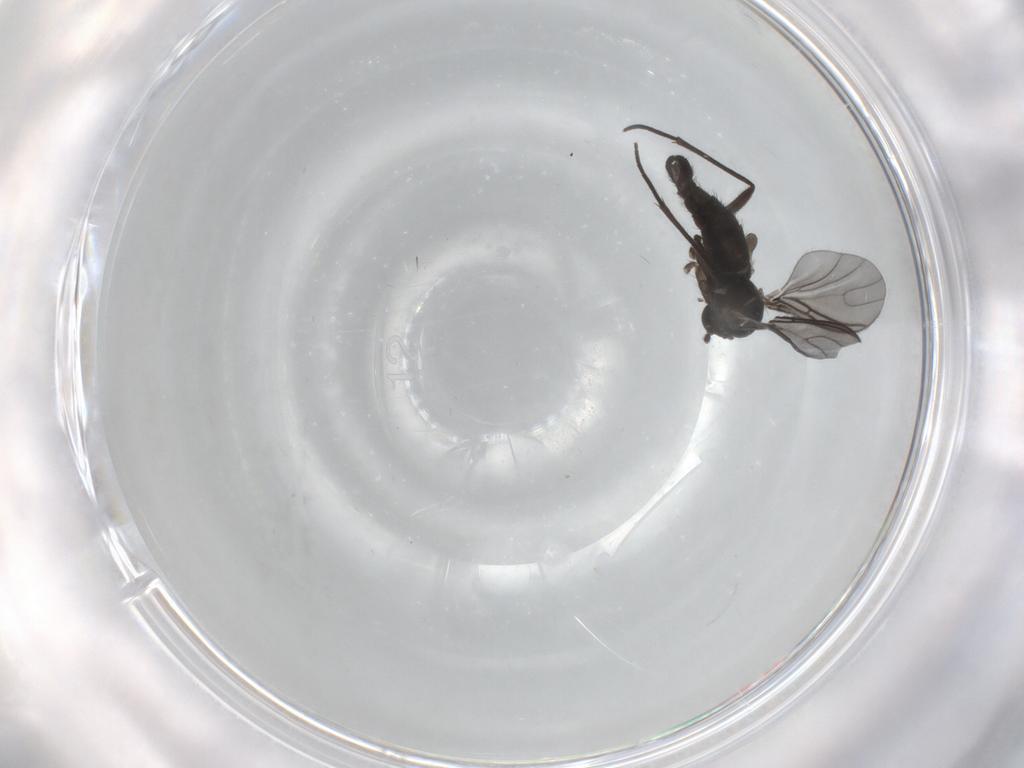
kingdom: Animalia
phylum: Arthropoda
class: Insecta
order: Diptera
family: Sciaridae
